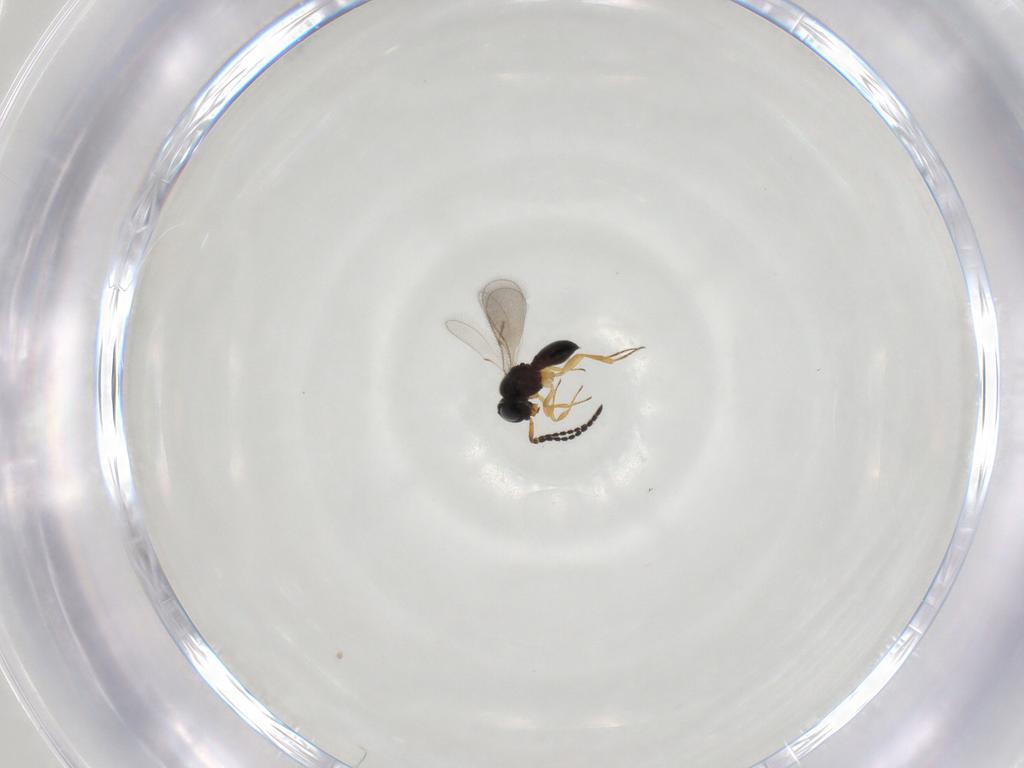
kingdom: Animalia
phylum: Arthropoda
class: Insecta
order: Hymenoptera
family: Scelionidae
